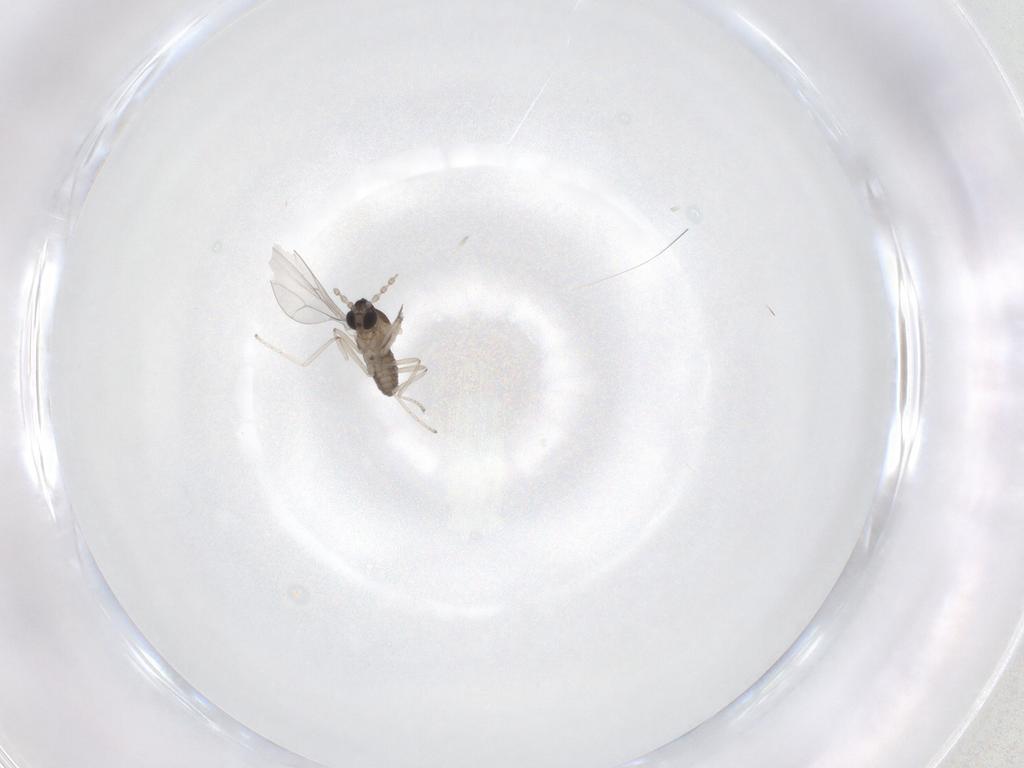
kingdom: Animalia
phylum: Arthropoda
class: Insecta
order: Diptera
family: Cecidomyiidae
